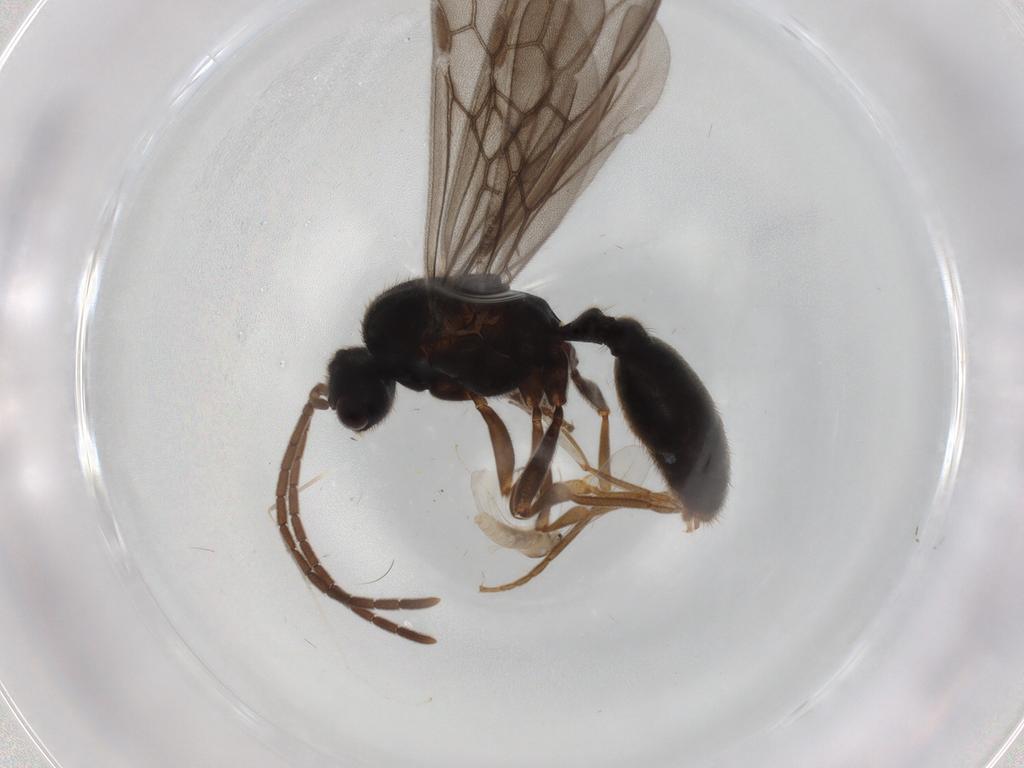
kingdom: Animalia
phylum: Arthropoda
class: Insecta
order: Hymenoptera
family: Formicidae
